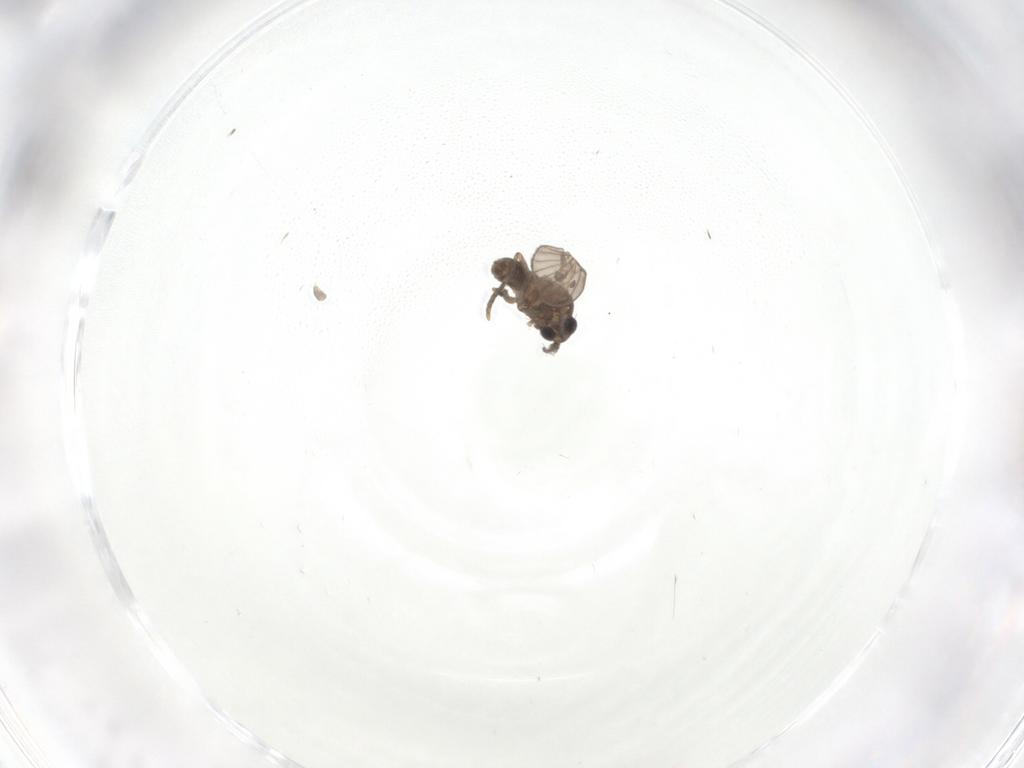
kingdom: Animalia
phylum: Arthropoda
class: Insecta
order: Diptera
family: Psychodidae
